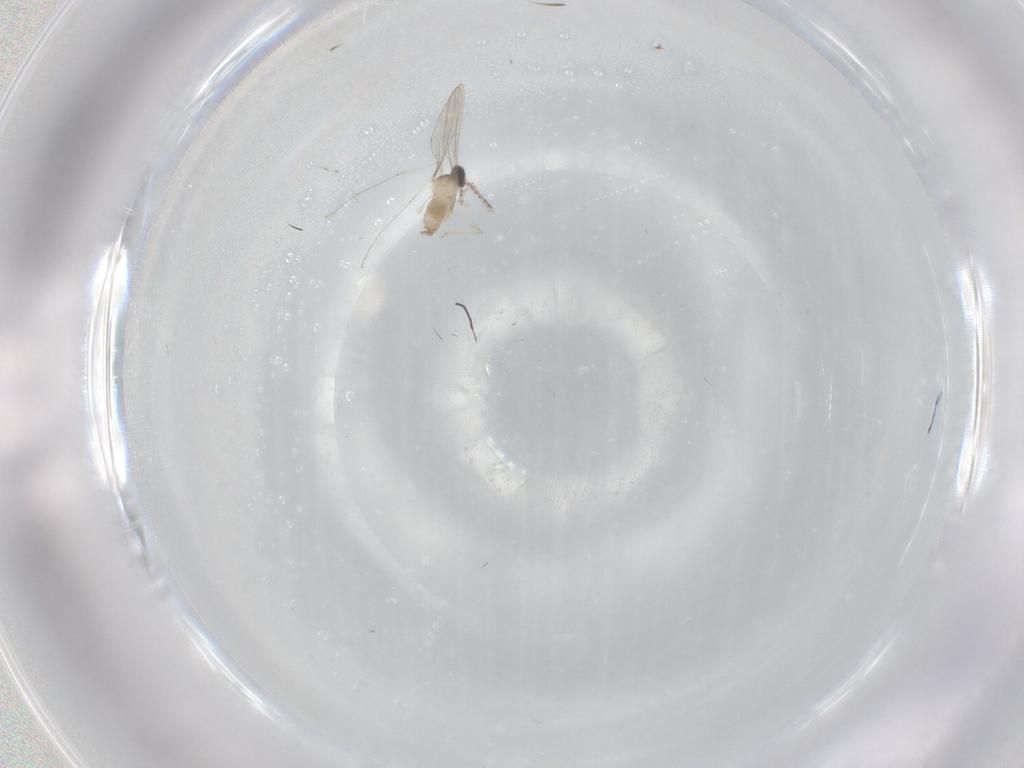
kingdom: Animalia
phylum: Arthropoda
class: Insecta
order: Diptera
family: Cecidomyiidae
